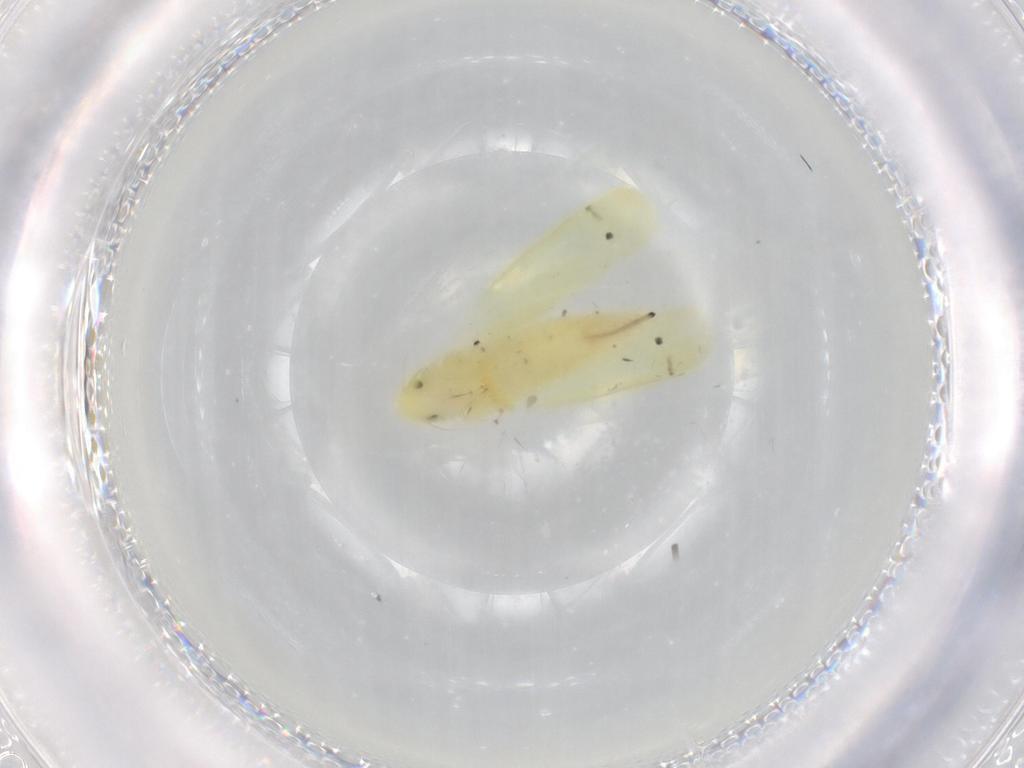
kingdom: Animalia
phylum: Arthropoda
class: Insecta
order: Hemiptera
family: Cicadellidae
